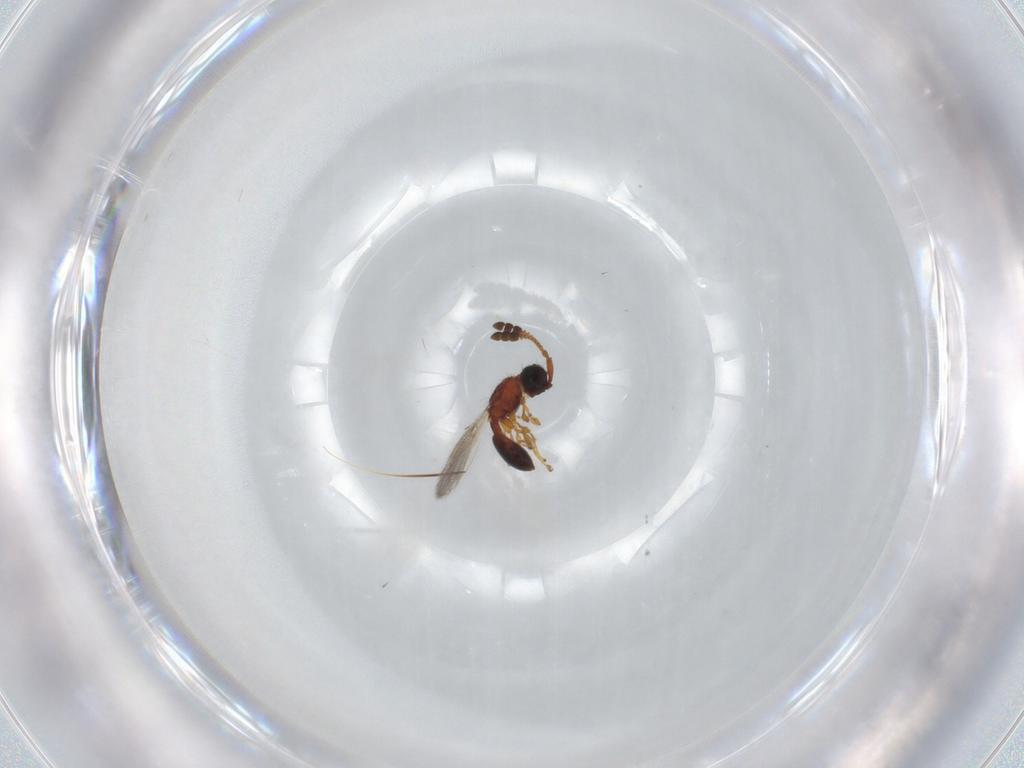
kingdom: Animalia
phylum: Arthropoda
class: Insecta
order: Hymenoptera
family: Diapriidae
